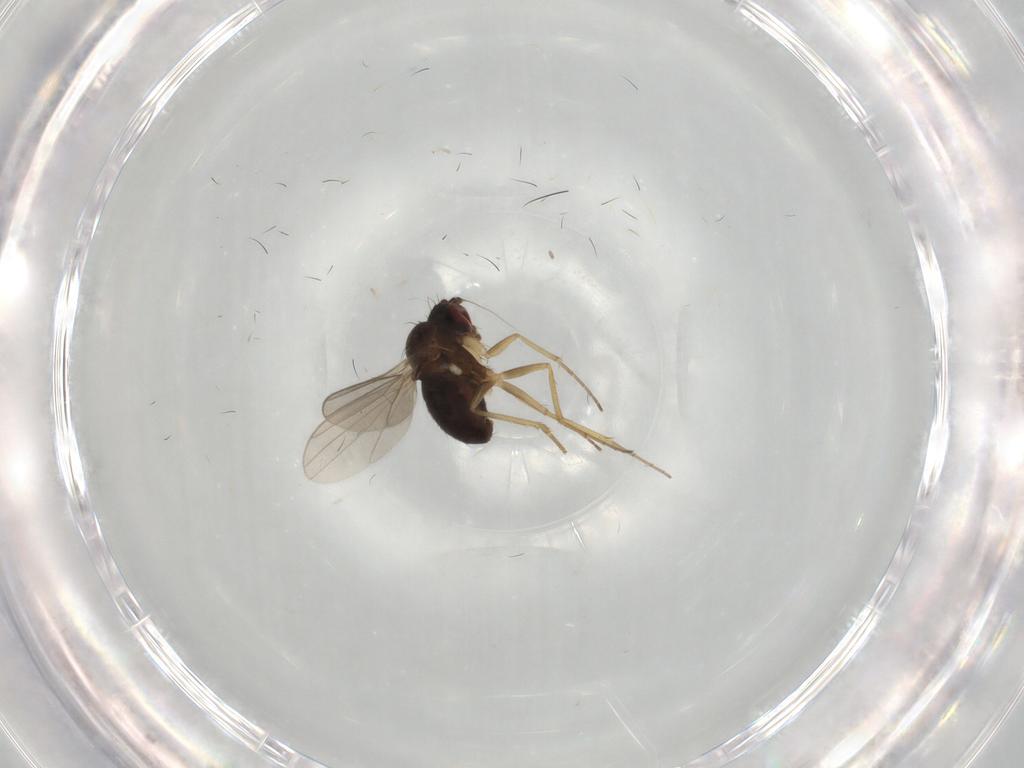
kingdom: Animalia
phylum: Arthropoda
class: Insecta
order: Diptera
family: Dolichopodidae
